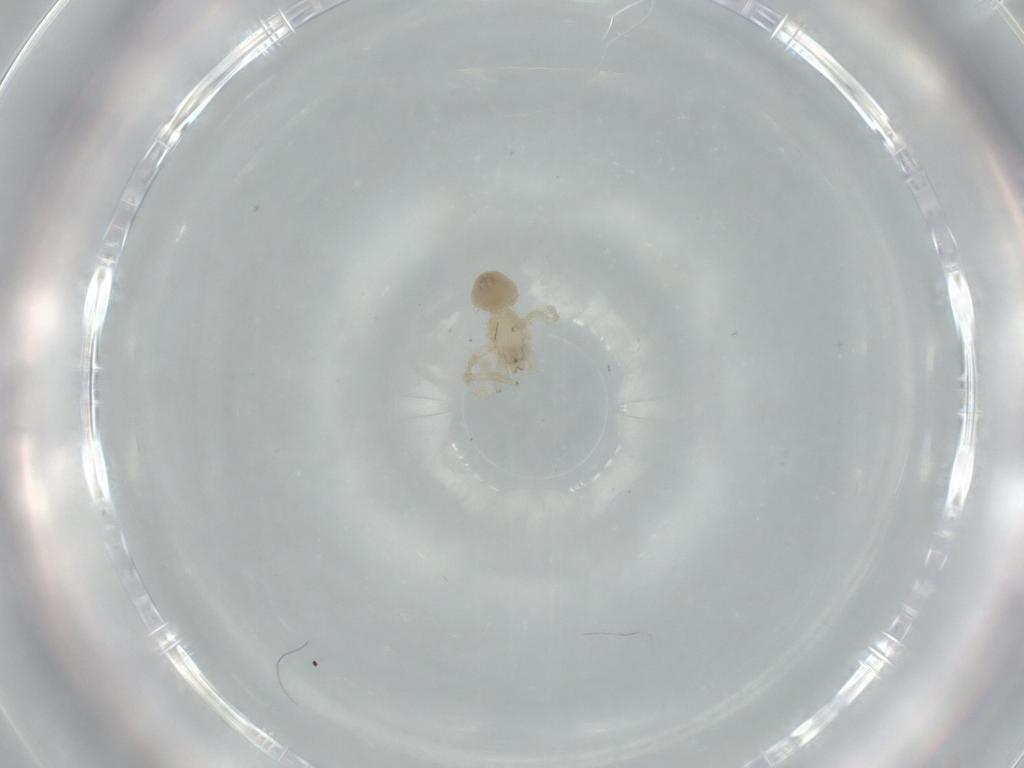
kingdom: Animalia
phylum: Arthropoda
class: Arachnida
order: Araneae
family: Oonopidae
